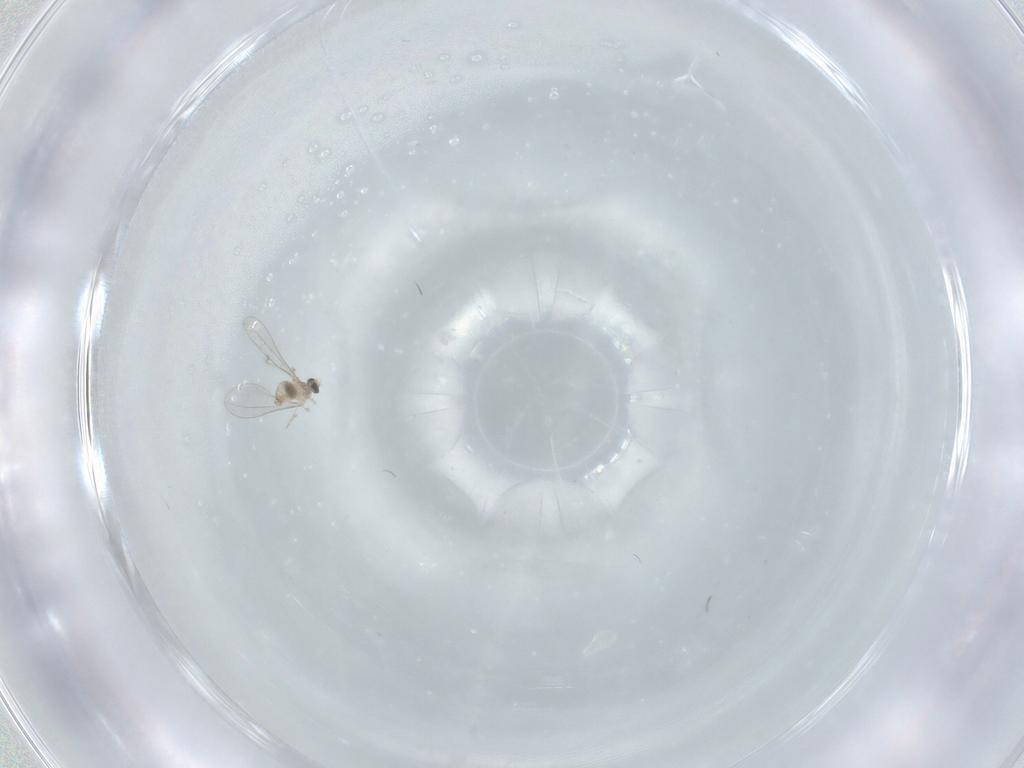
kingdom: Animalia
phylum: Arthropoda
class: Insecta
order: Diptera
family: Cecidomyiidae
